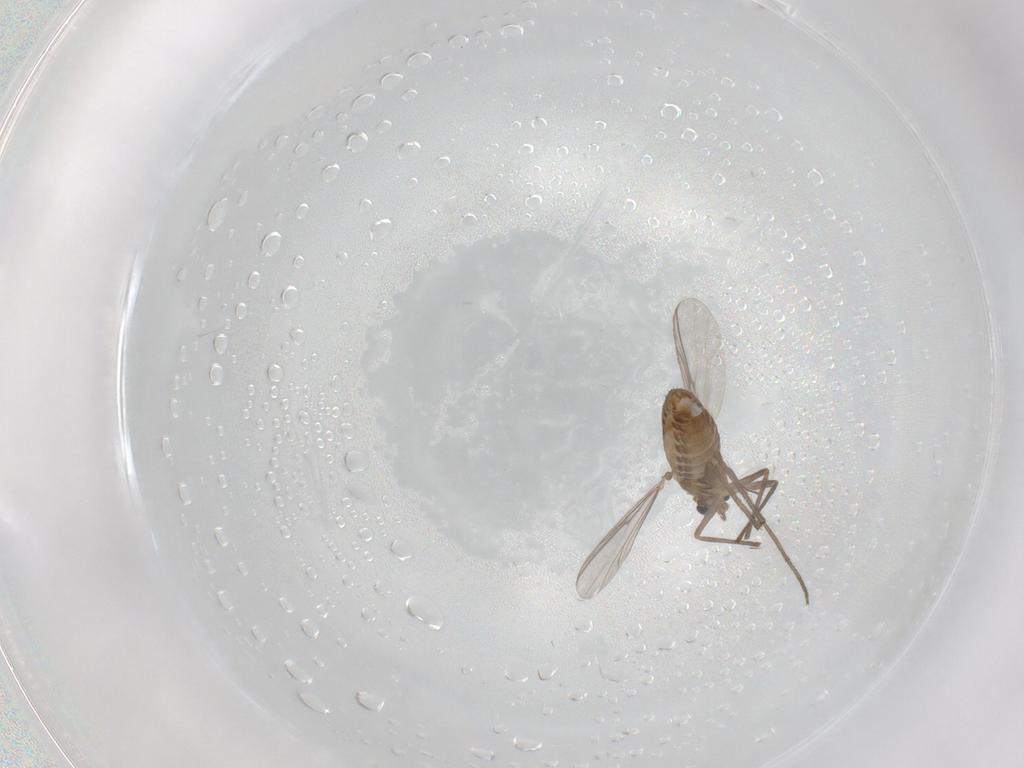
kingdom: Animalia
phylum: Arthropoda
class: Insecta
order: Diptera
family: Chironomidae
